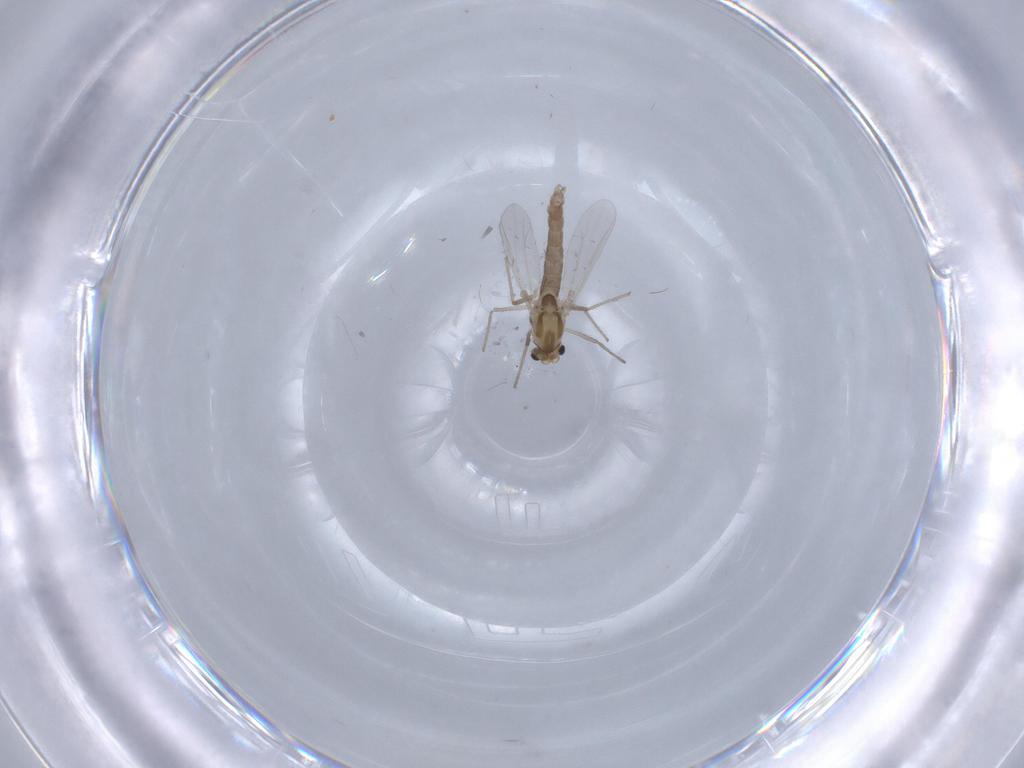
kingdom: Animalia
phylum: Arthropoda
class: Insecta
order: Diptera
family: Chironomidae
